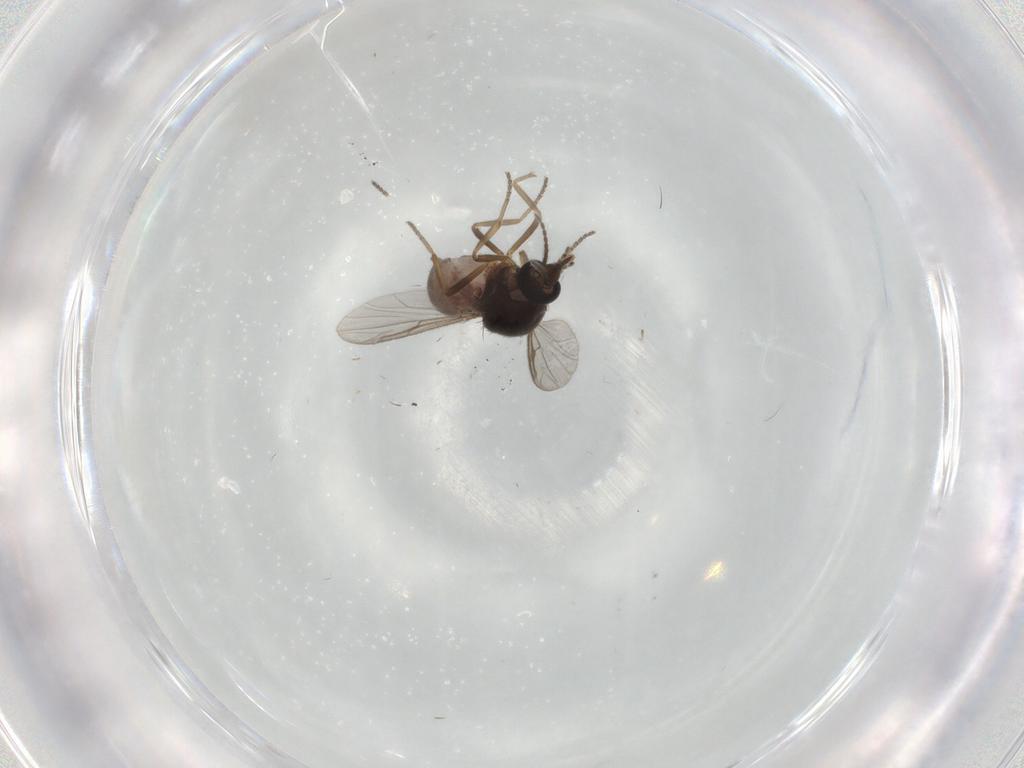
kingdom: Animalia
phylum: Arthropoda
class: Insecta
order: Diptera
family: Ceratopogonidae
